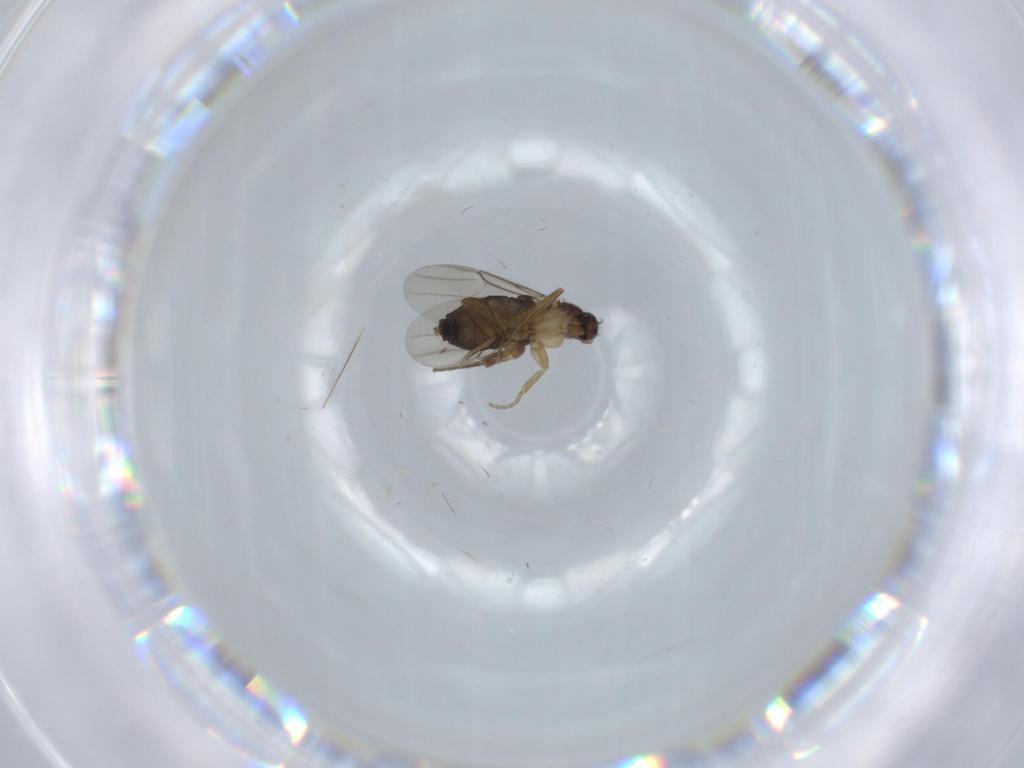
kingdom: Animalia
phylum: Arthropoda
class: Insecta
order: Diptera
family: Phoridae
